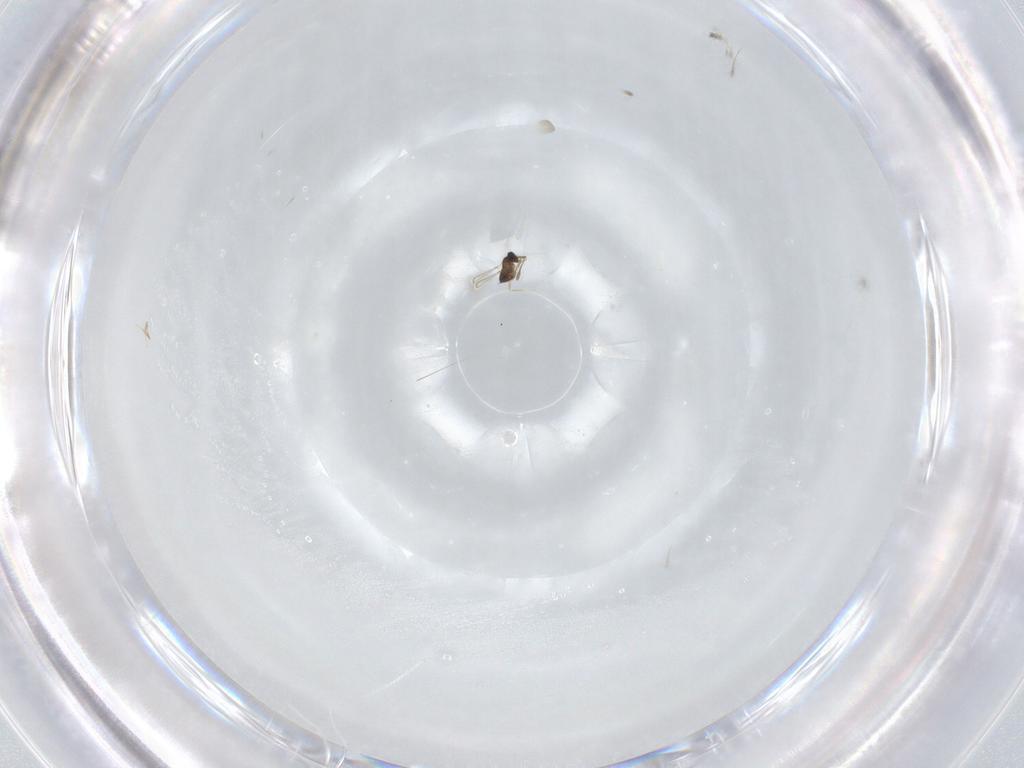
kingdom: Animalia
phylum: Arthropoda
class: Insecta
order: Hymenoptera
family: Mymaridae
